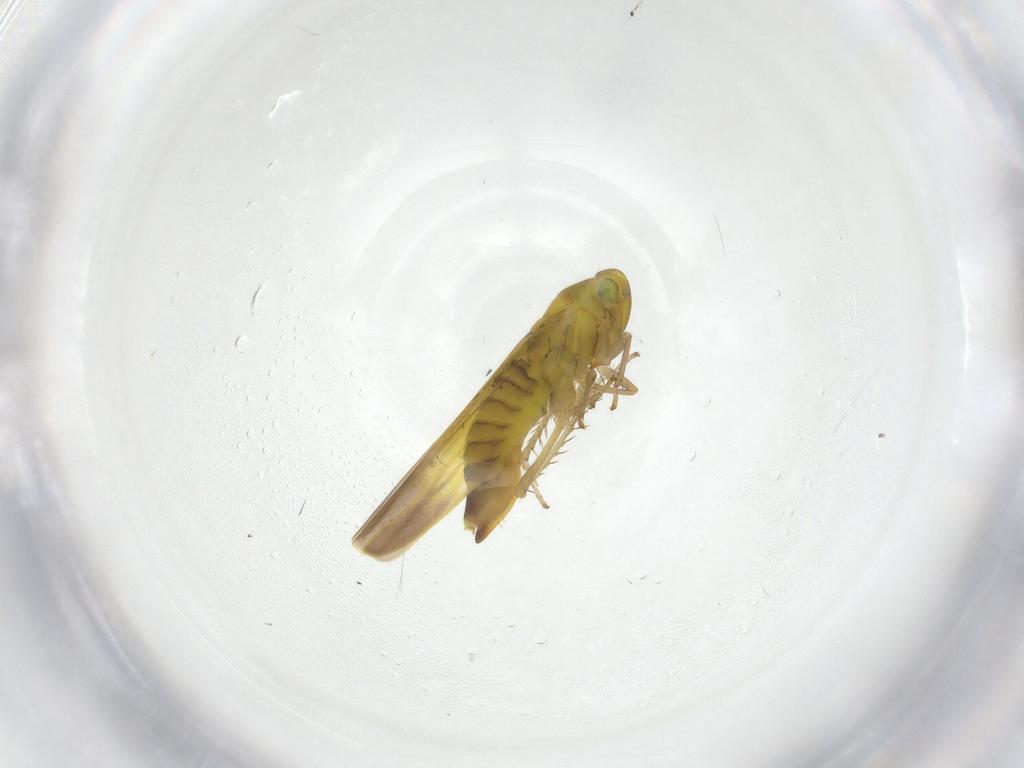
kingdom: Animalia
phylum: Arthropoda
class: Insecta
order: Hemiptera
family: Cicadellidae
